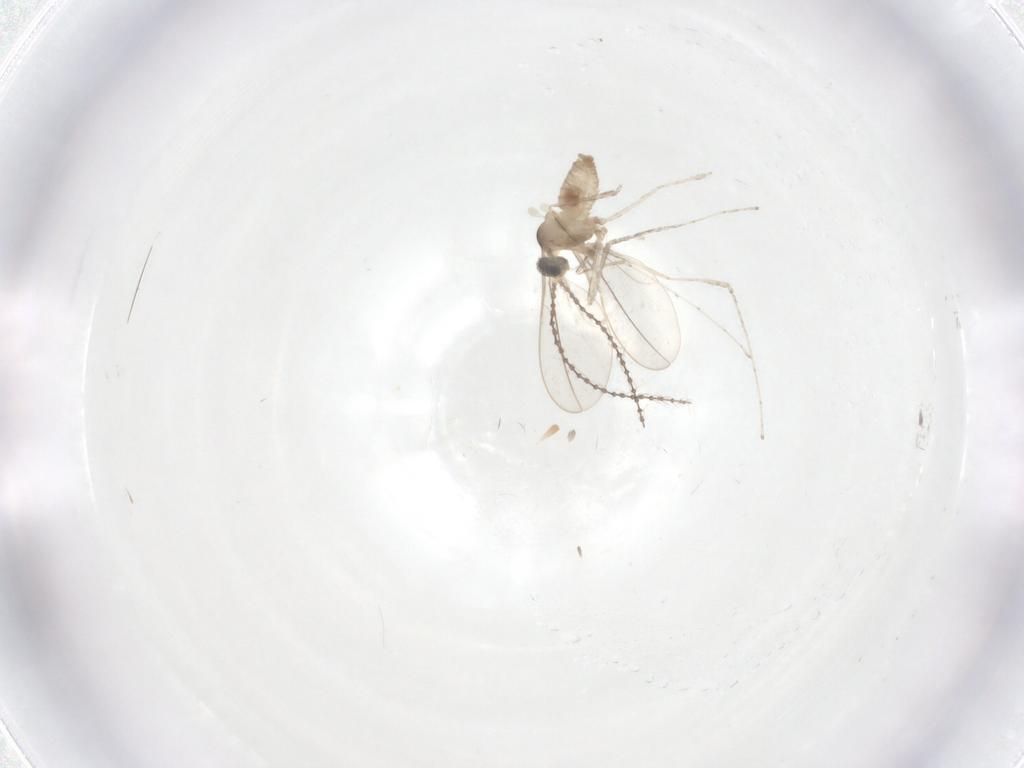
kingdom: Animalia
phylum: Arthropoda
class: Insecta
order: Diptera
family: Cecidomyiidae
